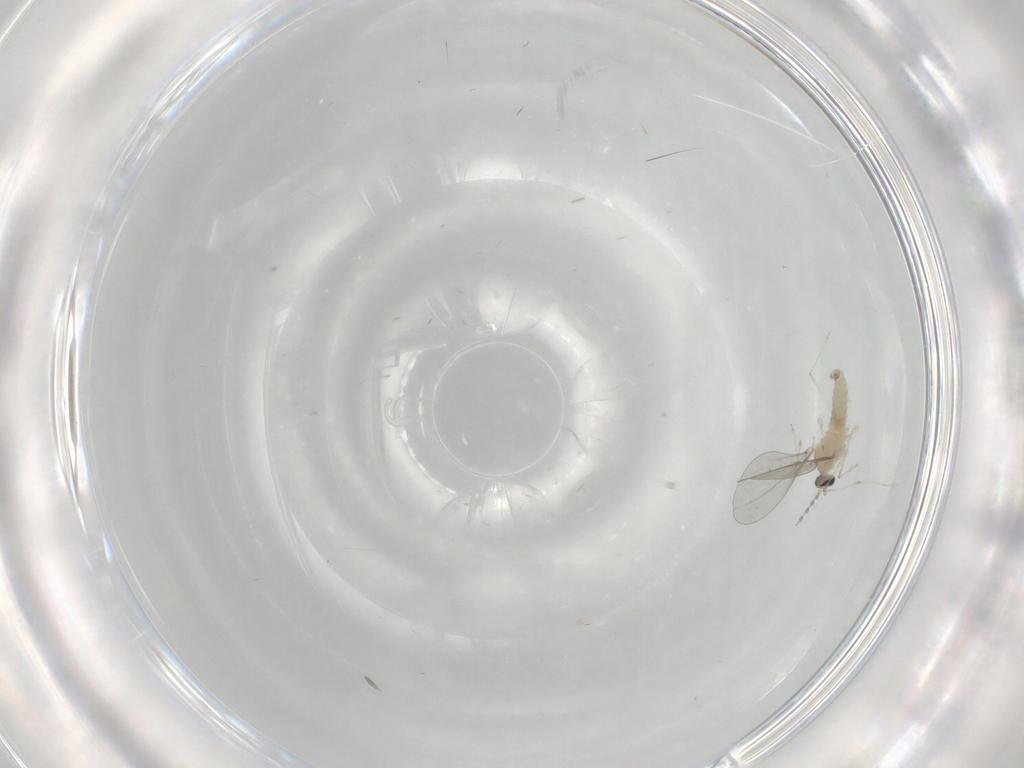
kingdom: Animalia
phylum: Arthropoda
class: Insecta
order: Diptera
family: Cecidomyiidae
